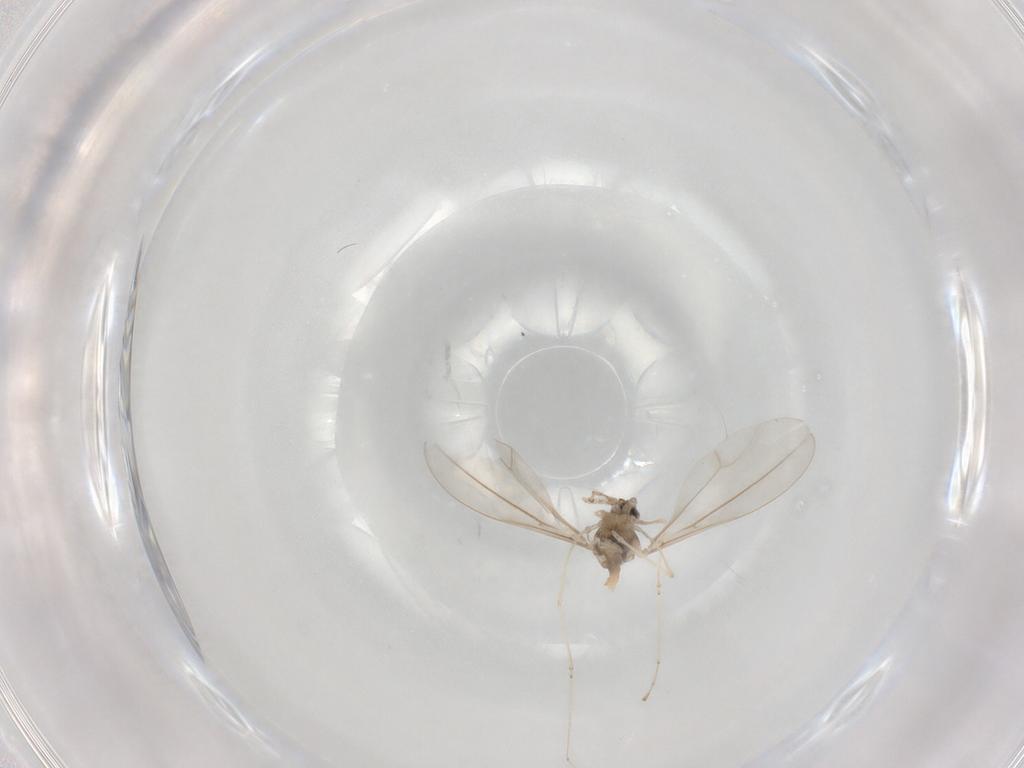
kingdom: Animalia
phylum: Arthropoda
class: Insecta
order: Diptera
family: Cecidomyiidae
